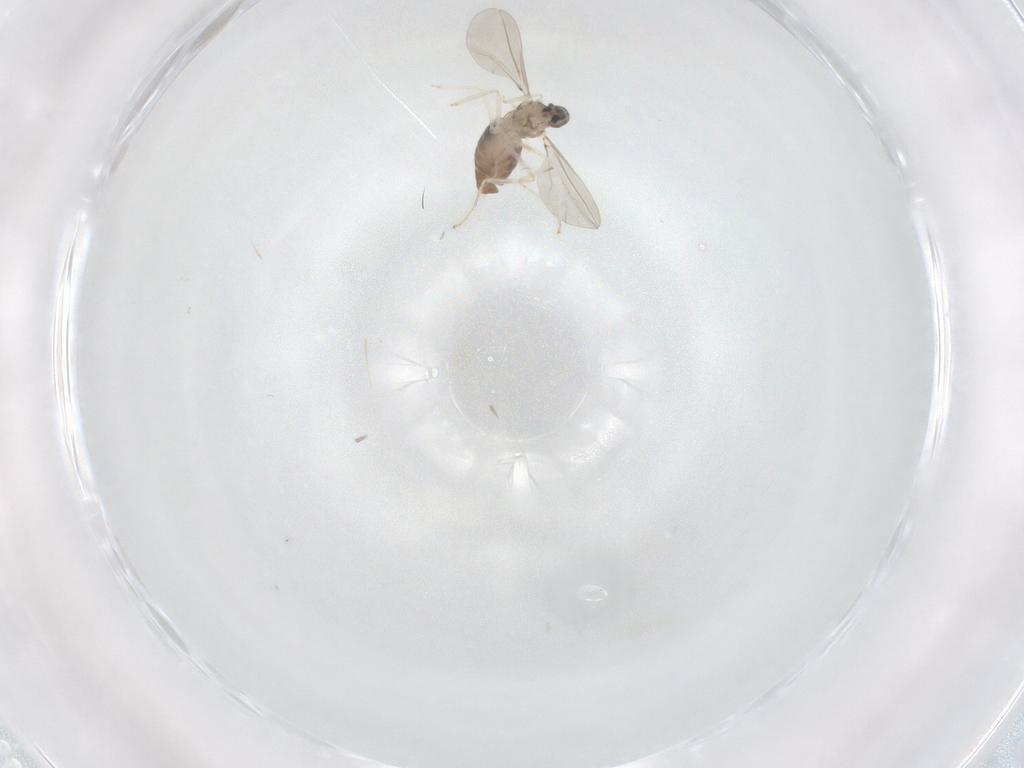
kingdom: Animalia
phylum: Arthropoda
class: Insecta
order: Diptera
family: Cecidomyiidae
